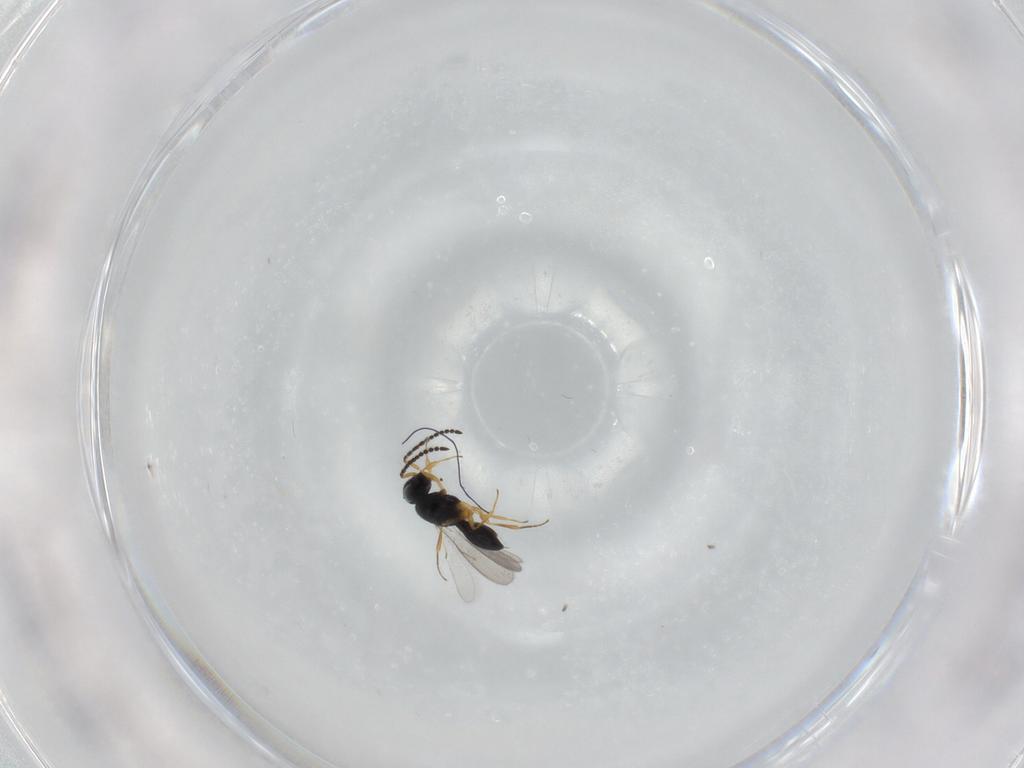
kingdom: Animalia
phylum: Arthropoda
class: Insecta
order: Hymenoptera
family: Scelionidae
